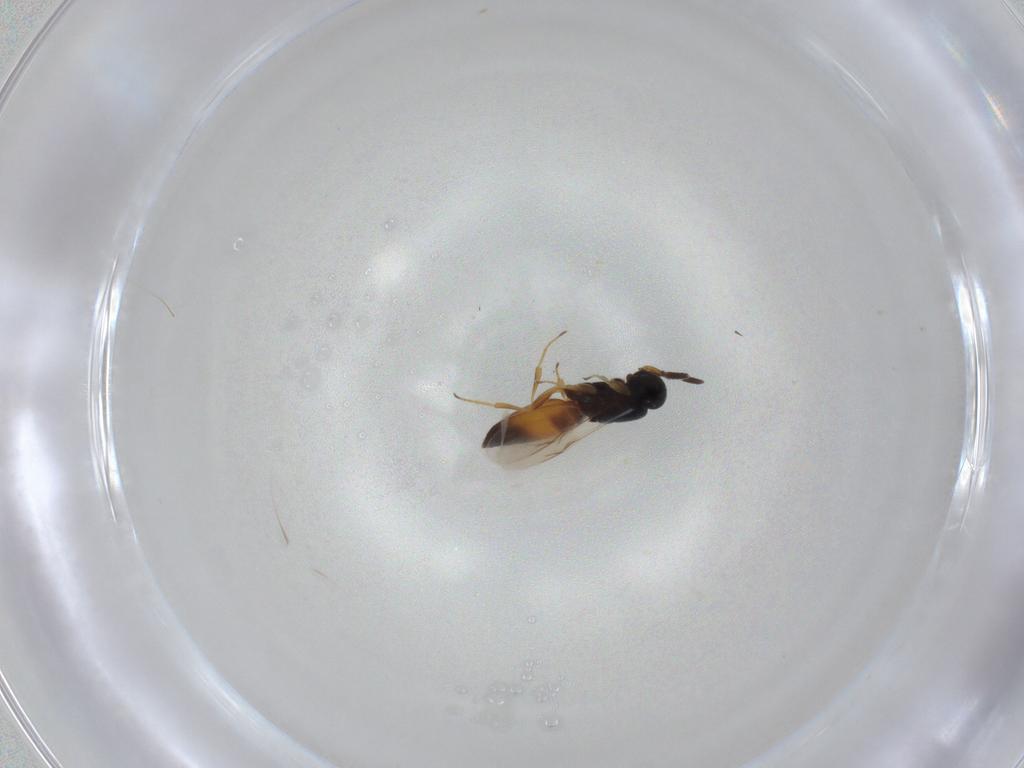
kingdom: Animalia
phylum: Arthropoda
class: Insecta
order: Hymenoptera
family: Scelionidae
